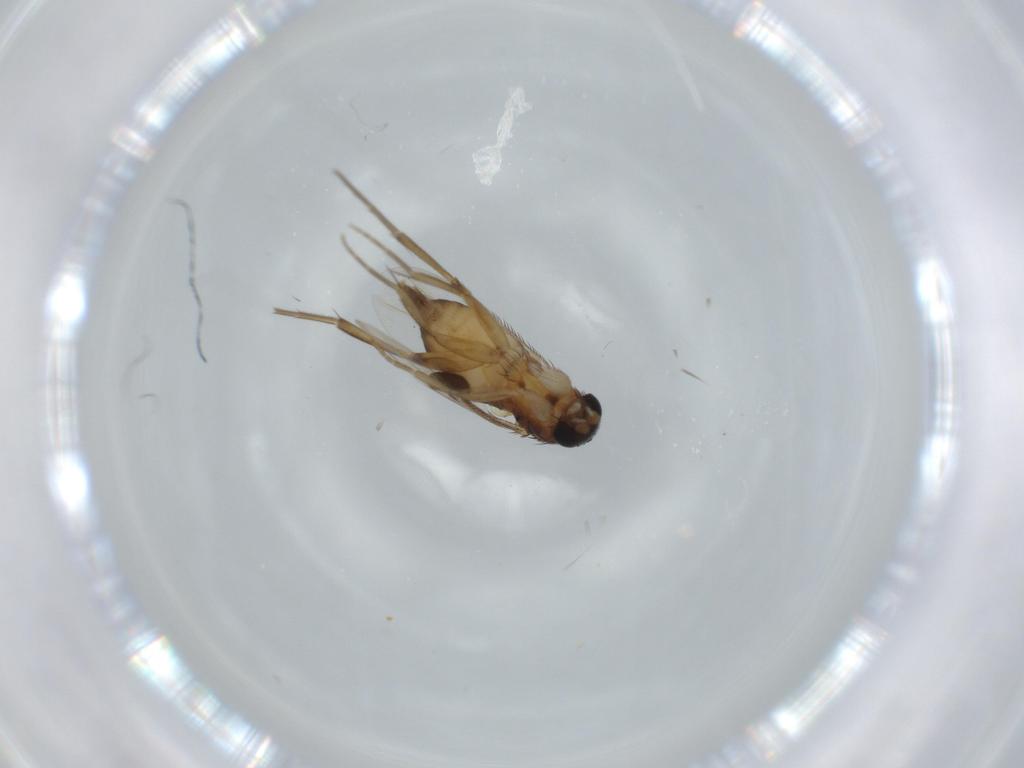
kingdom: Animalia
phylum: Arthropoda
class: Insecta
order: Diptera
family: Anthomyiidae
